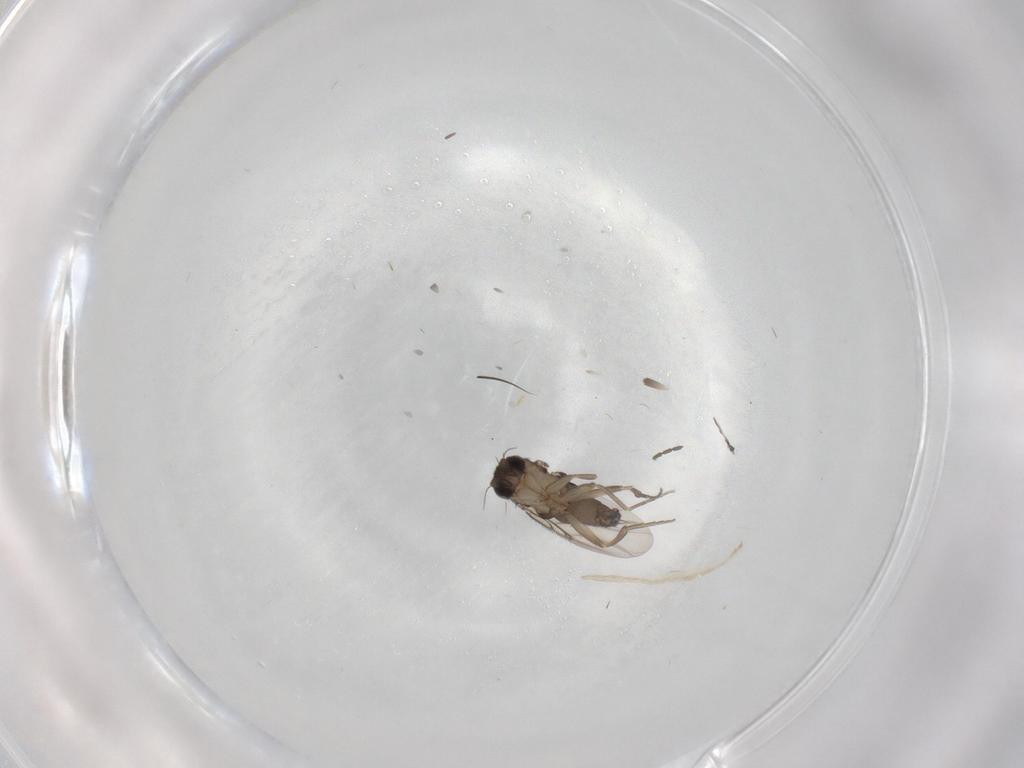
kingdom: Animalia
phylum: Arthropoda
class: Insecta
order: Diptera
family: Chironomidae
